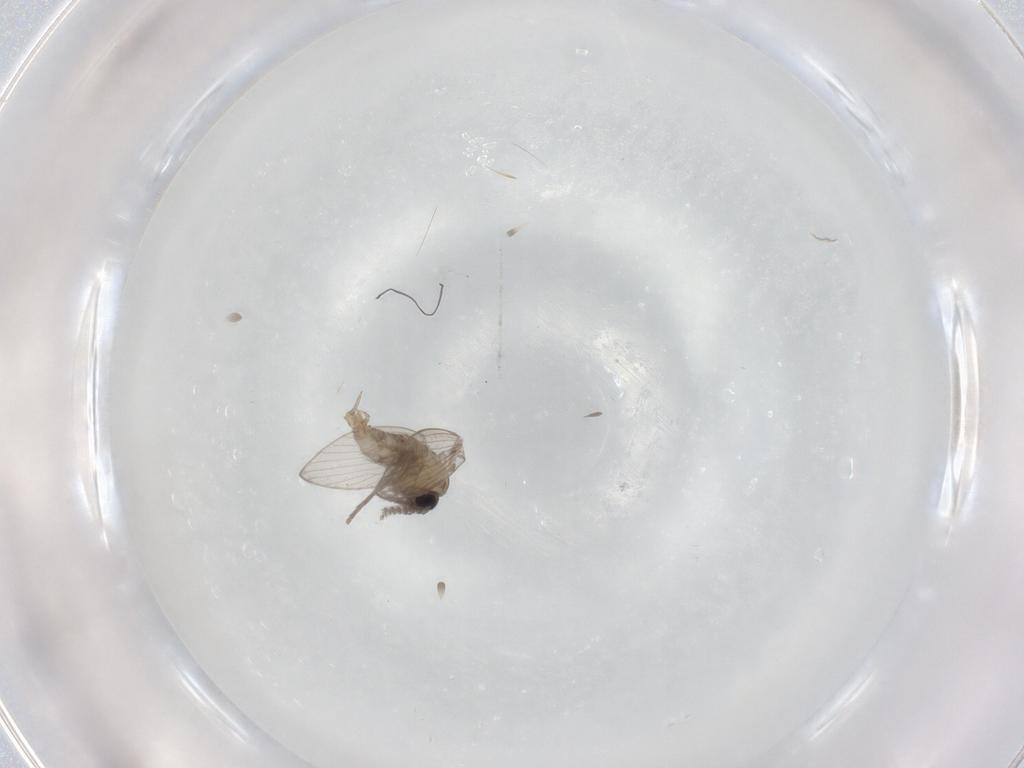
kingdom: Animalia
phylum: Arthropoda
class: Insecta
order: Diptera
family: Psychodidae
